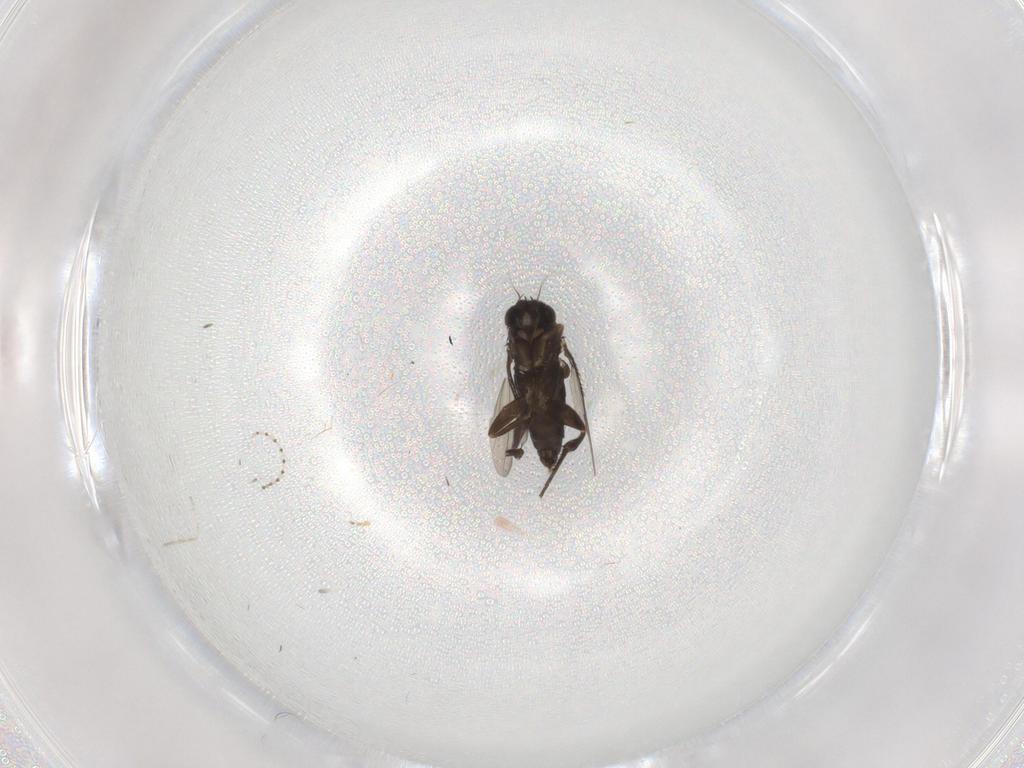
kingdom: Animalia
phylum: Arthropoda
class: Insecta
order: Diptera
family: Cecidomyiidae
